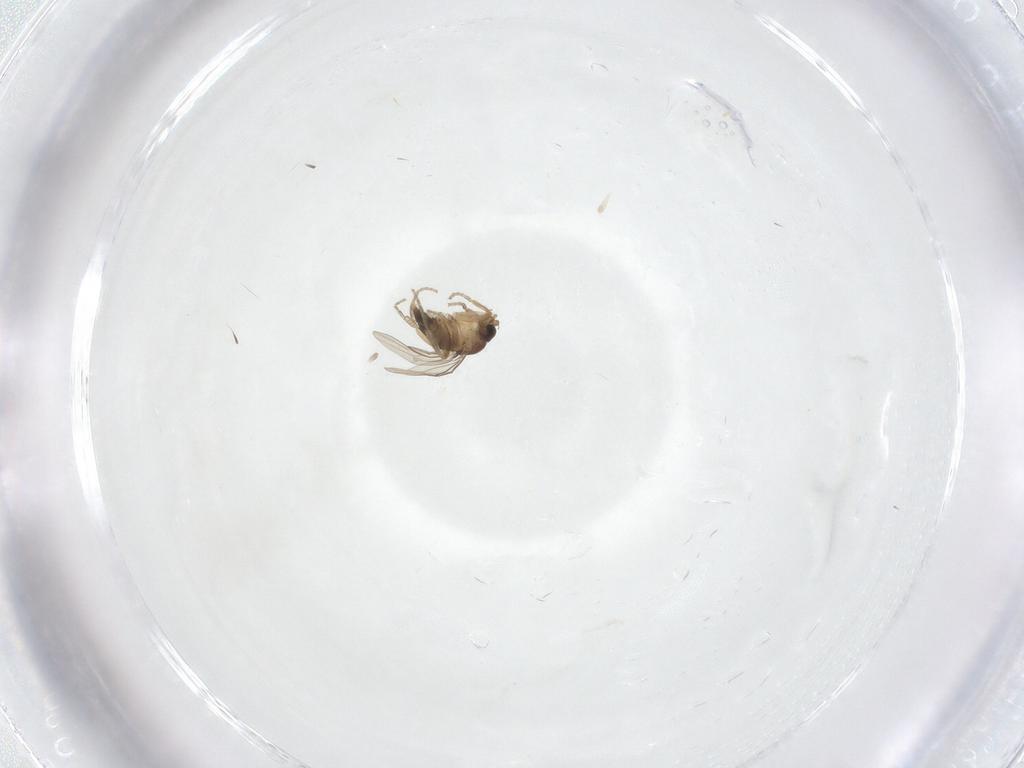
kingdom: Animalia
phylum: Arthropoda
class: Insecta
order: Diptera
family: Phoridae
